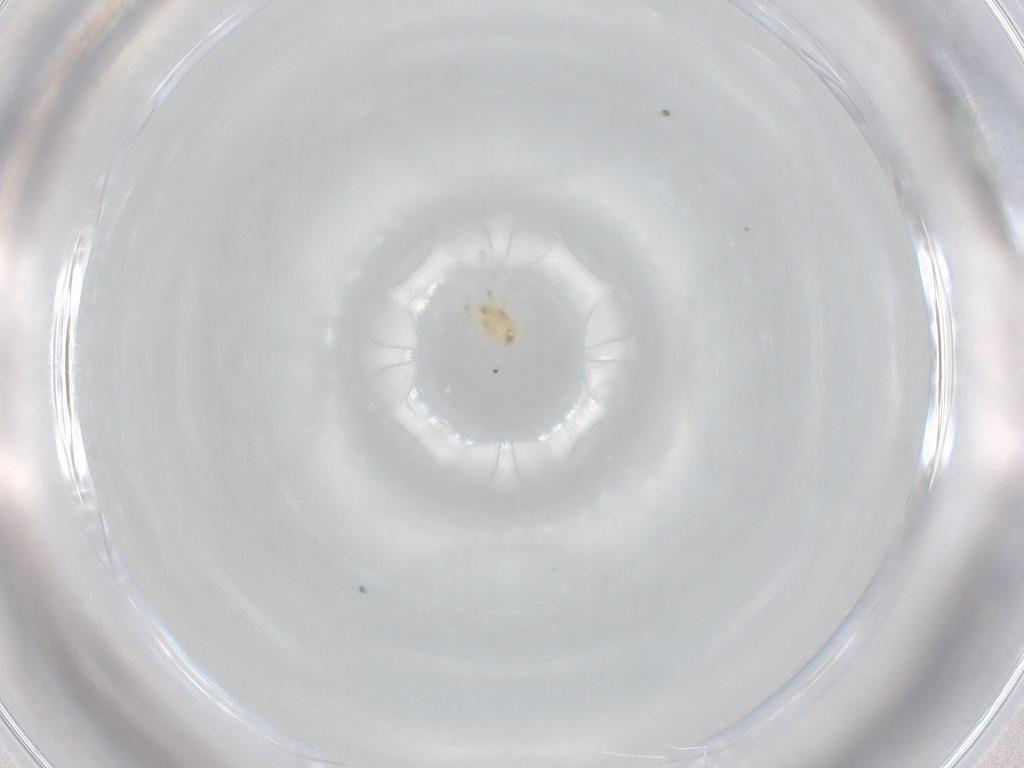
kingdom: Animalia
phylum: Arthropoda
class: Arachnida
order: Mesostigmata
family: Phytoseiidae
